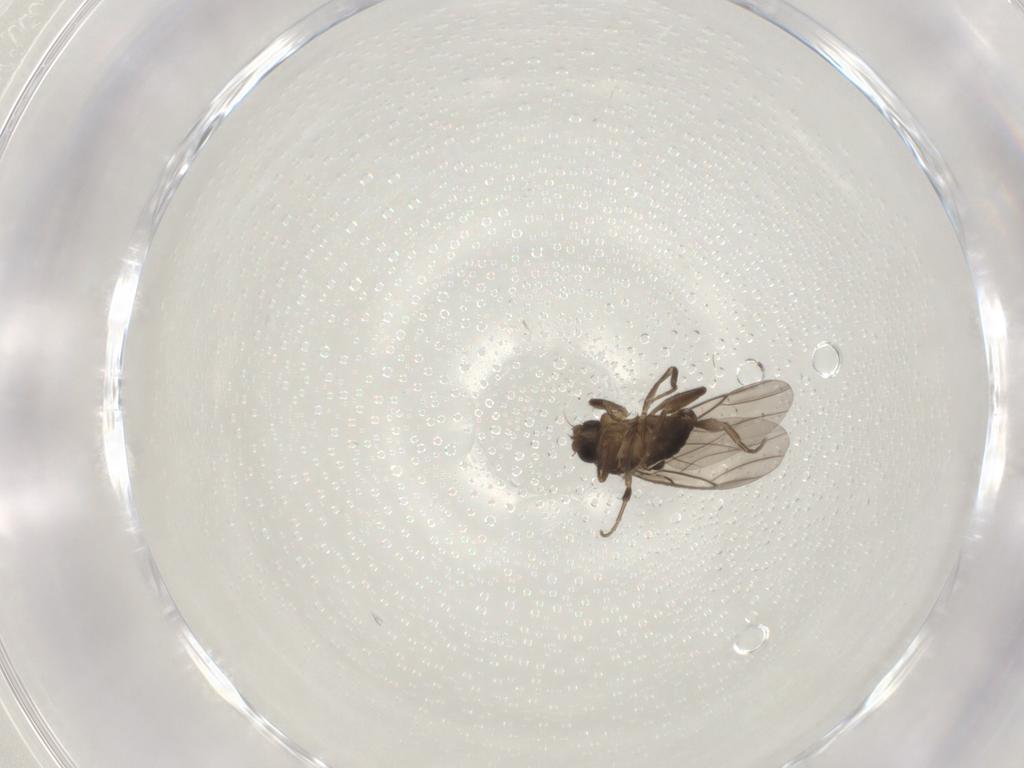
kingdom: Animalia
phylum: Arthropoda
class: Insecta
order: Diptera
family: Phoridae
